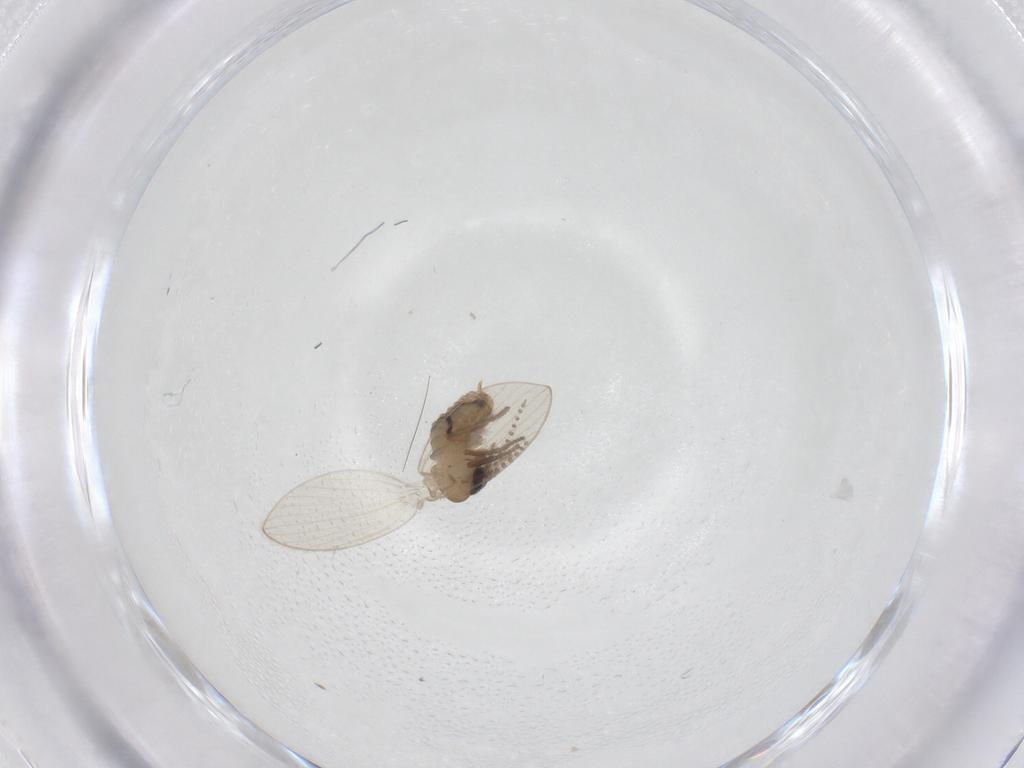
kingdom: Animalia
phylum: Arthropoda
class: Insecta
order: Diptera
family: Psychodidae
